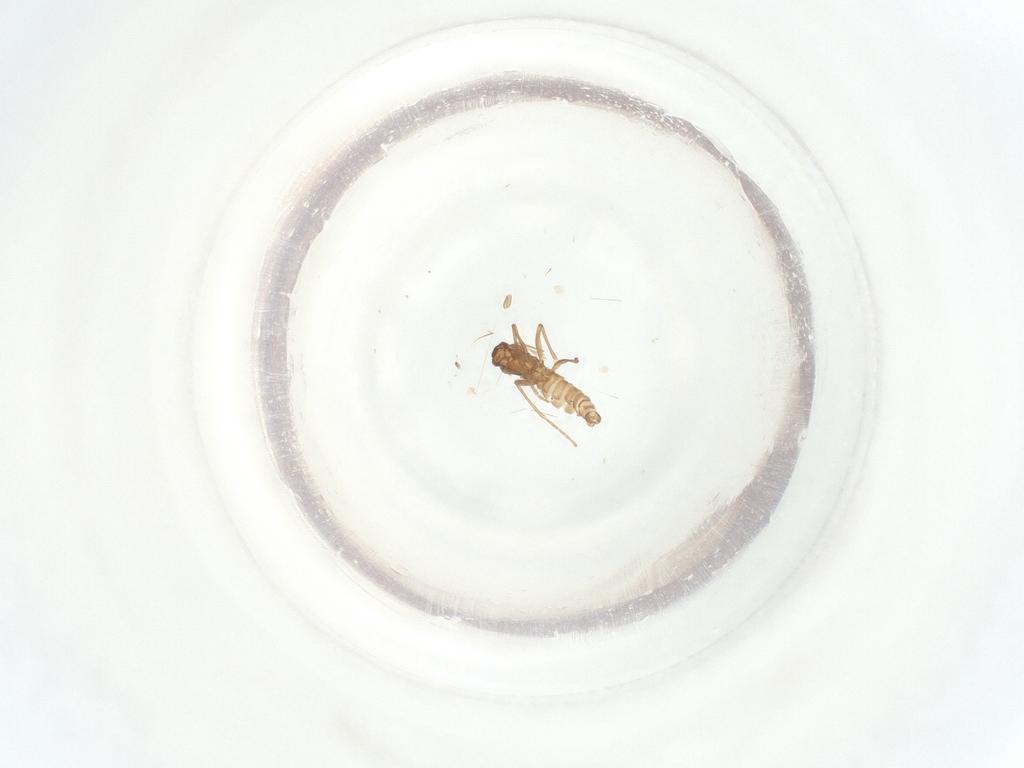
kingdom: Animalia
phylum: Arthropoda
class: Insecta
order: Diptera
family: Sciaridae
